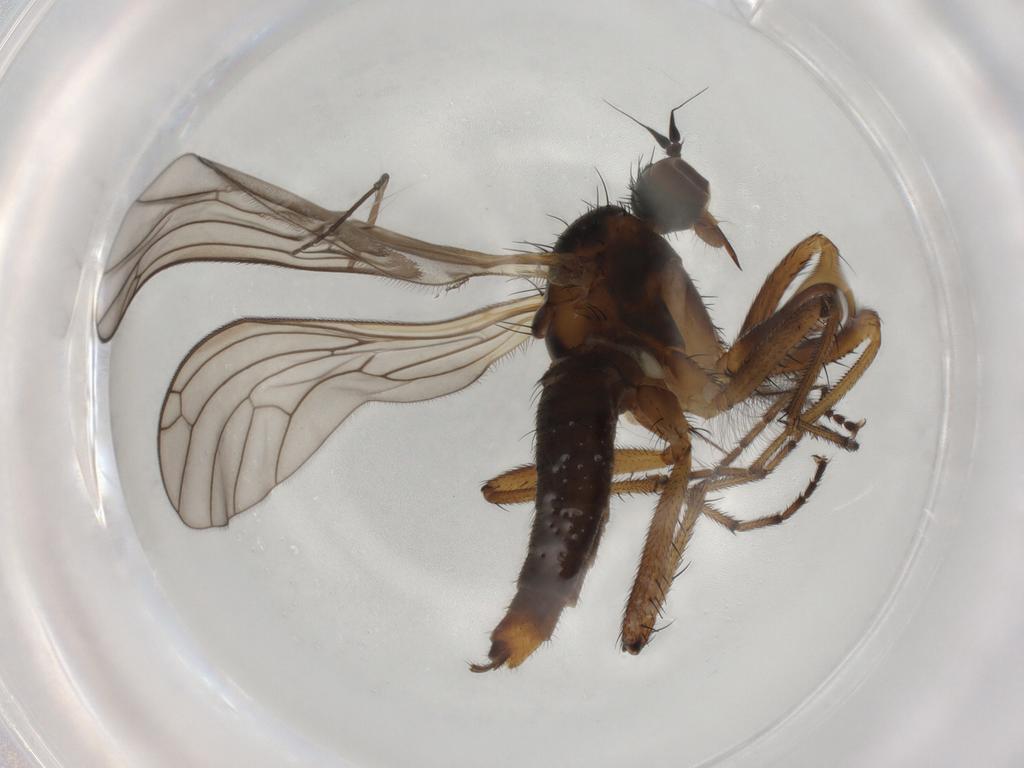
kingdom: Animalia
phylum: Arthropoda
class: Insecta
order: Diptera
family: Empididae
